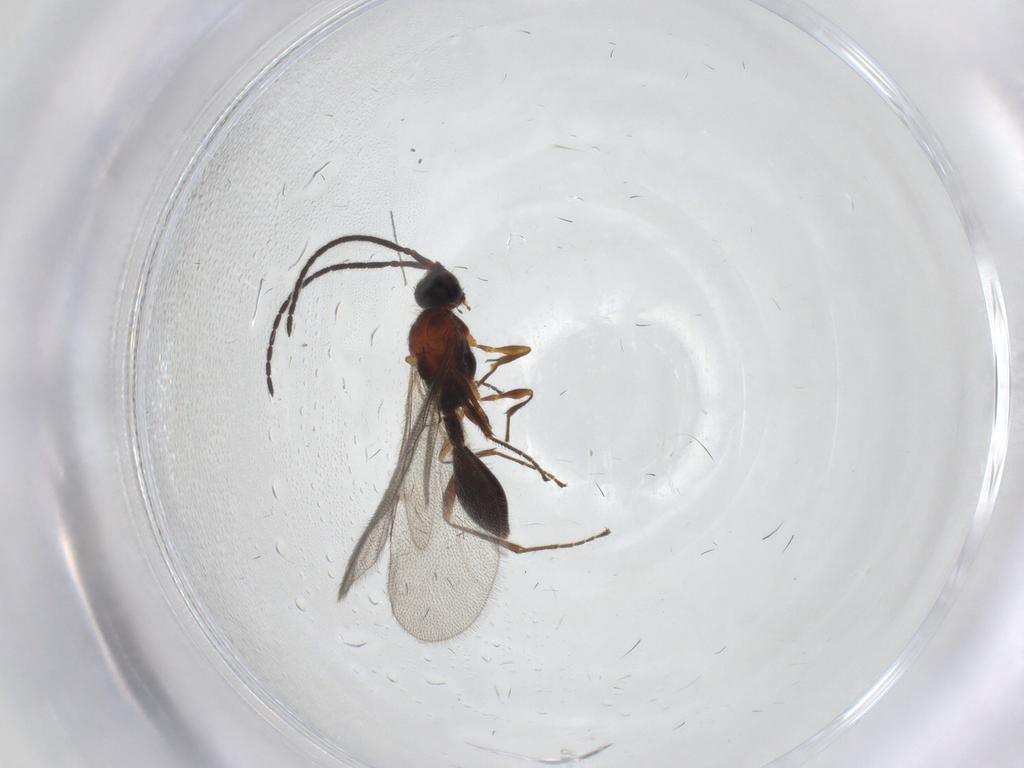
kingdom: Animalia
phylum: Arthropoda
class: Insecta
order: Hymenoptera
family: Diapriidae
